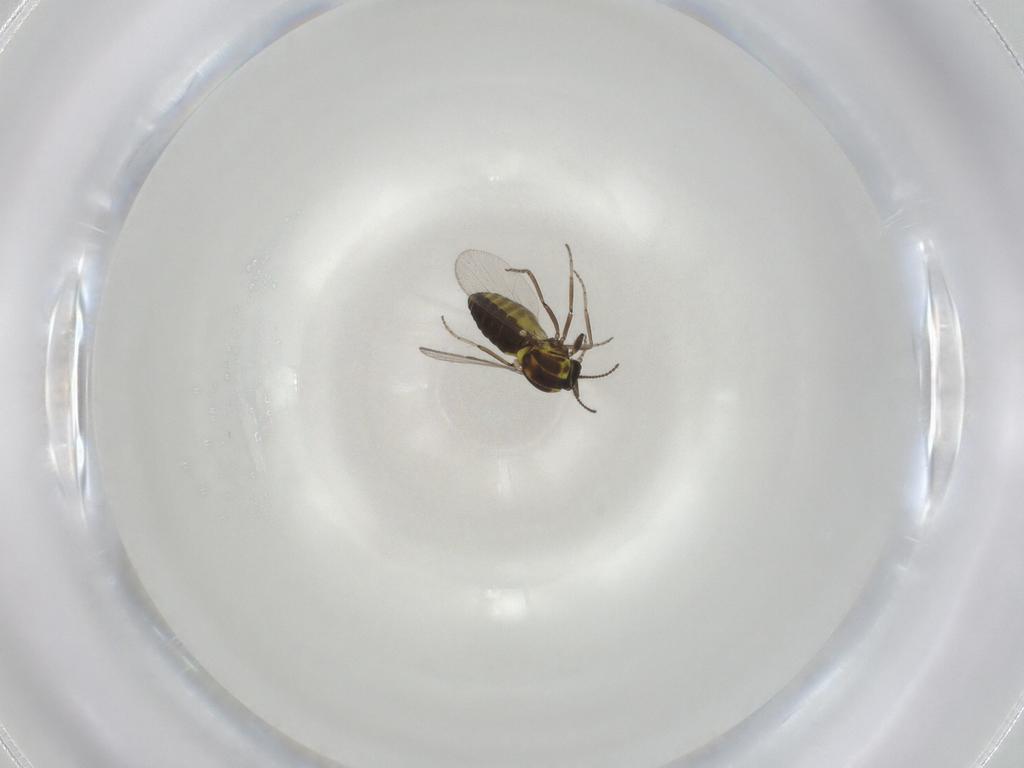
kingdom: Animalia
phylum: Arthropoda
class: Insecta
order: Diptera
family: Ceratopogonidae
